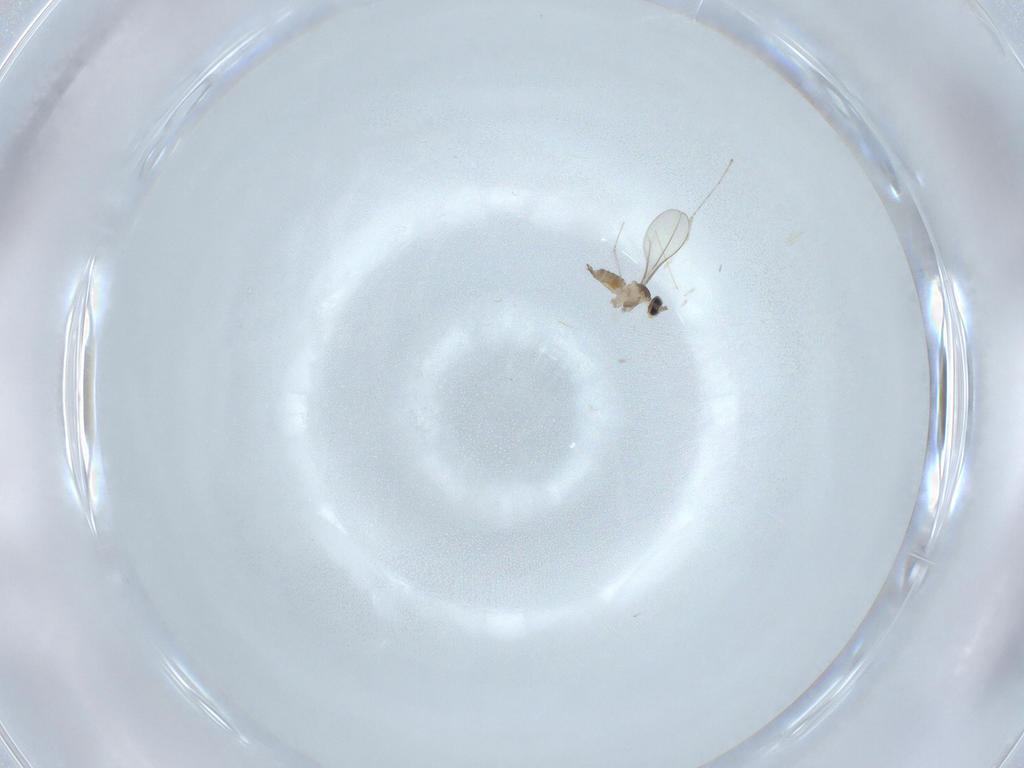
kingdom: Animalia
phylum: Arthropoda
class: Insecta
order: Diptera
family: Cecidomyiidae
